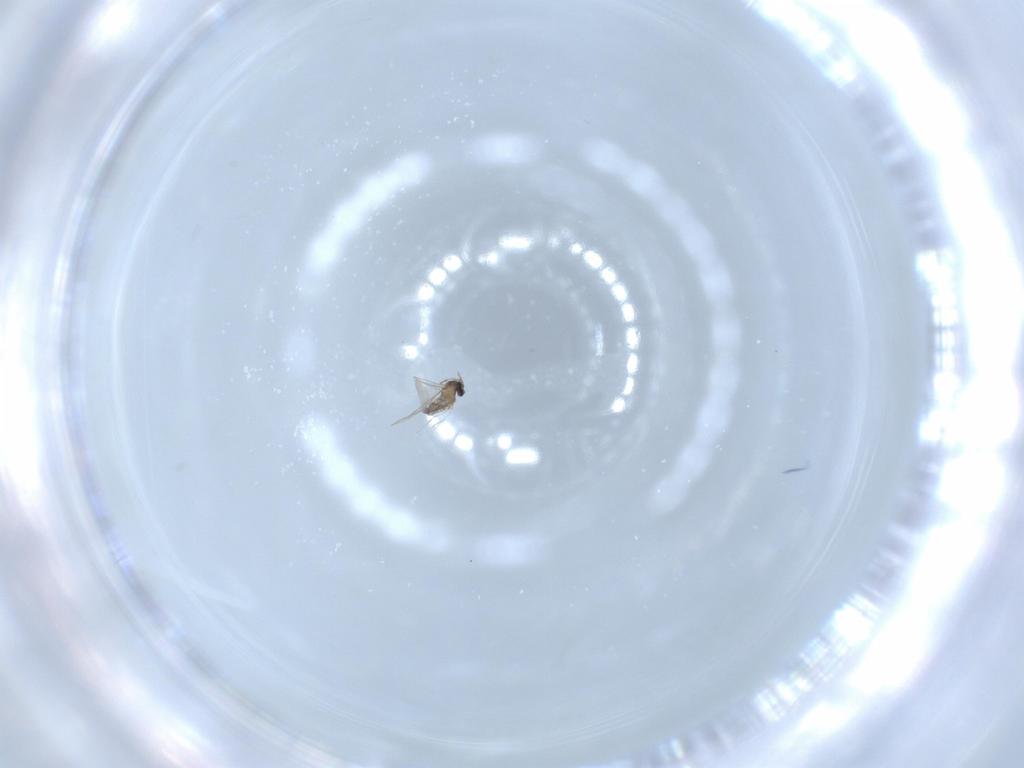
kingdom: Animalia
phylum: Arthropoda
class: Insecta
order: Diptera
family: Cecidomyiidae
